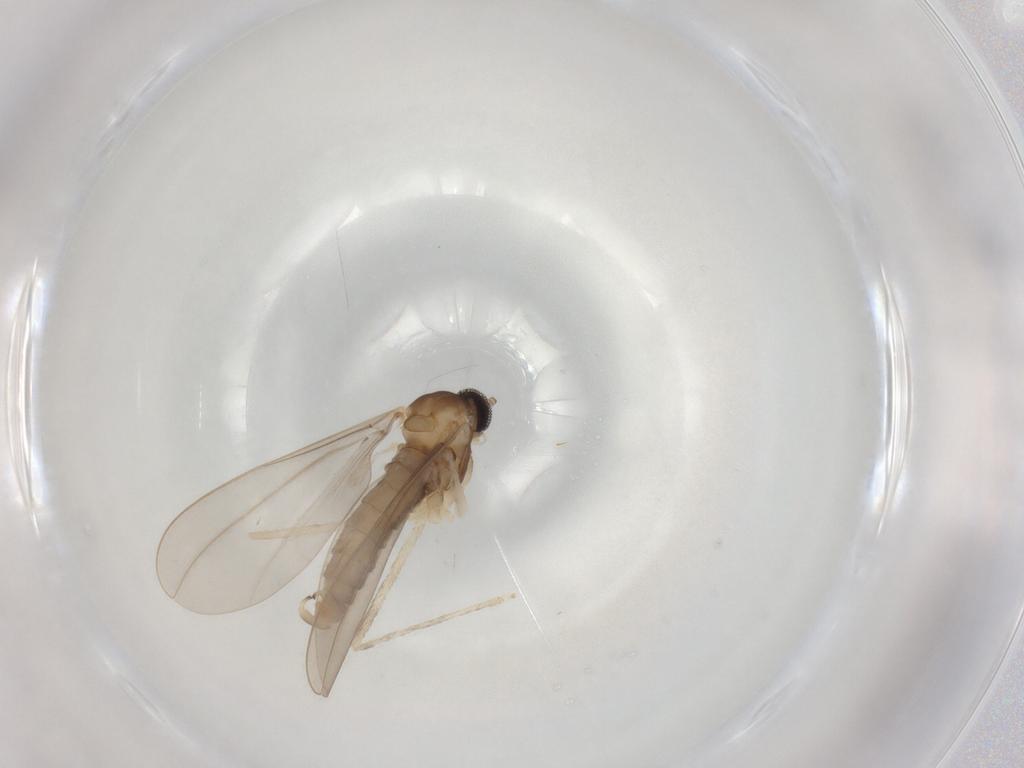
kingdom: Animalia
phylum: Arthropoda
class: Insecta
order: Diptera
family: Cecidomyiidae
